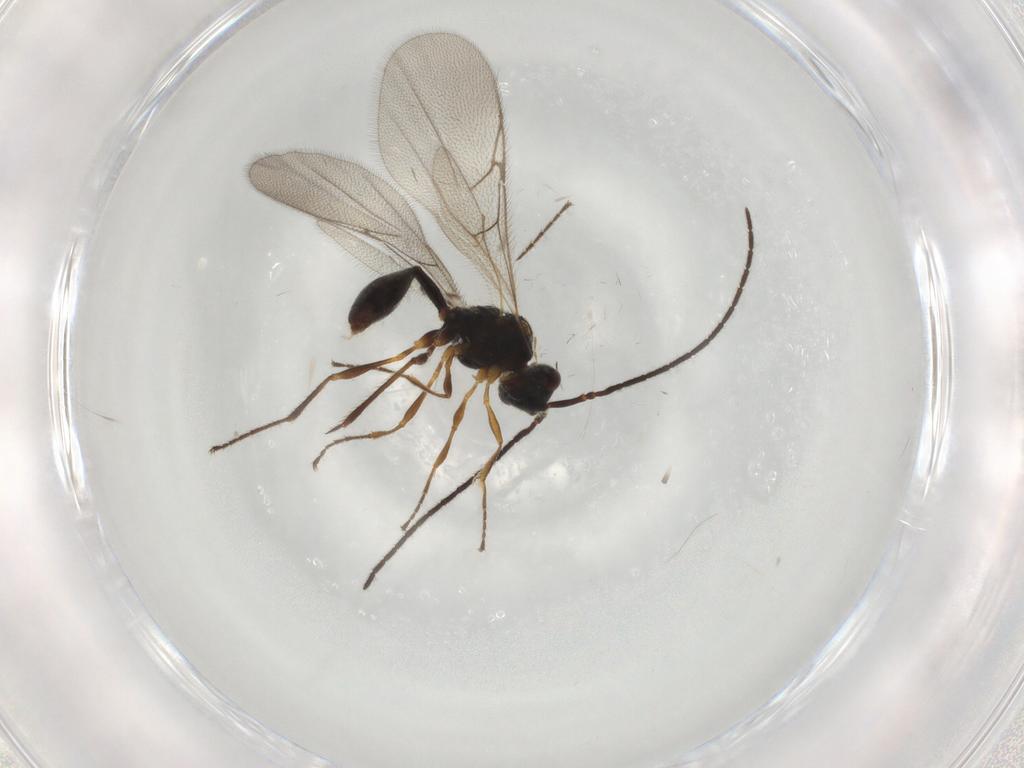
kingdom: Animalia
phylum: Arthropoda
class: Insecta
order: Hymenoptera
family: Diapriidae
